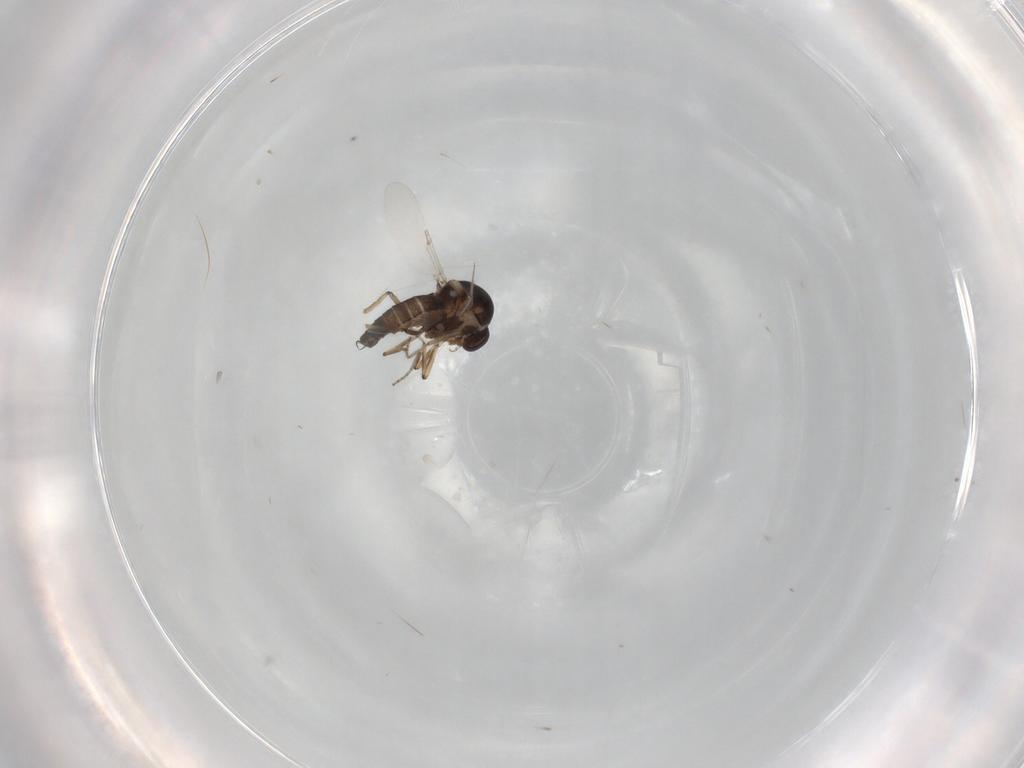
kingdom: Animalia
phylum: Arthropoda
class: Insecta
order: Diptera
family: Ceratopogonidae
